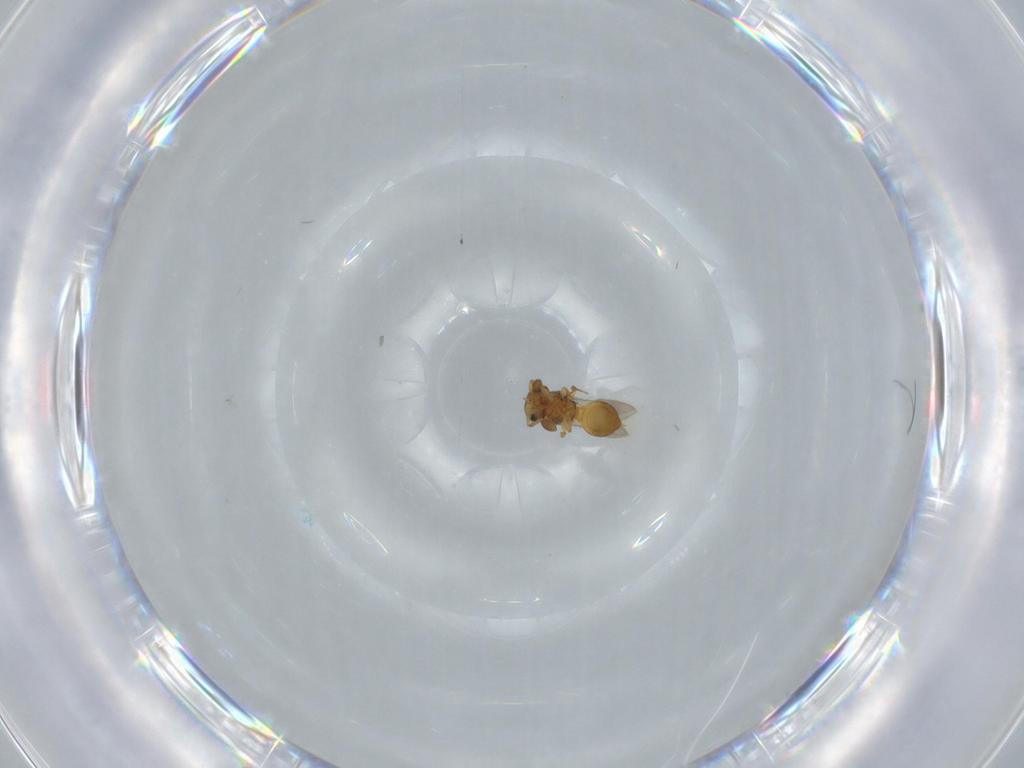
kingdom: Animalia
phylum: Arthropoda
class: Insecta
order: Hymenoptera
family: Scelionidae
